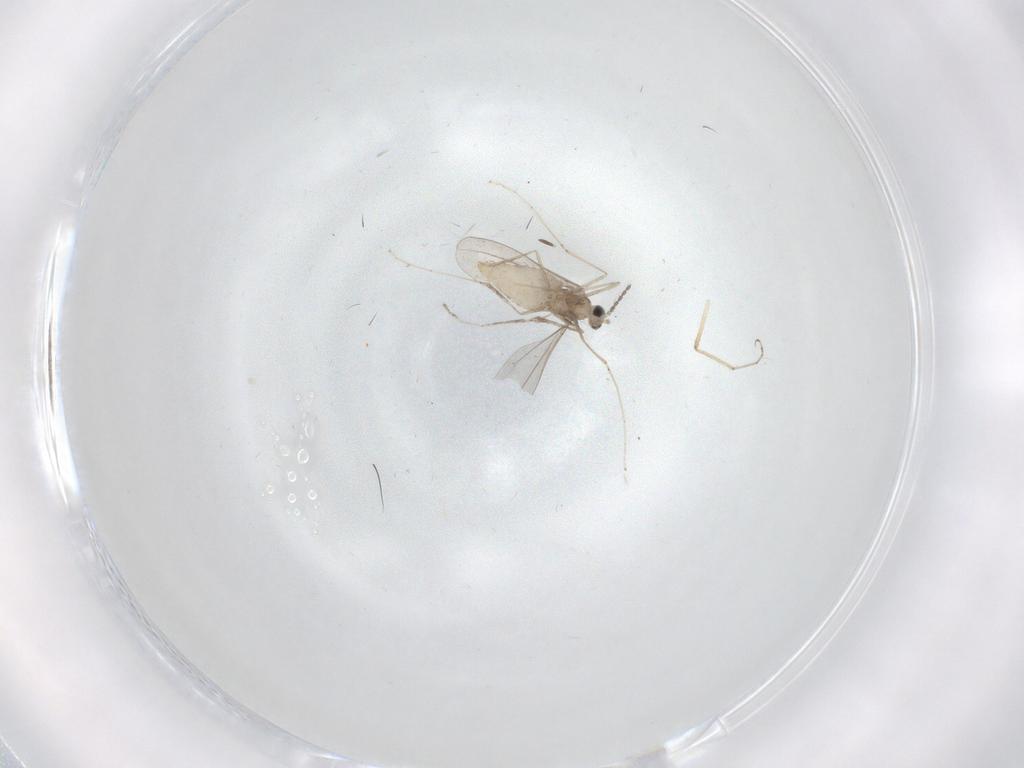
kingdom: Animalia
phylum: Arthropoda
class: Insecta
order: Diptera
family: Cecidomyiidae
